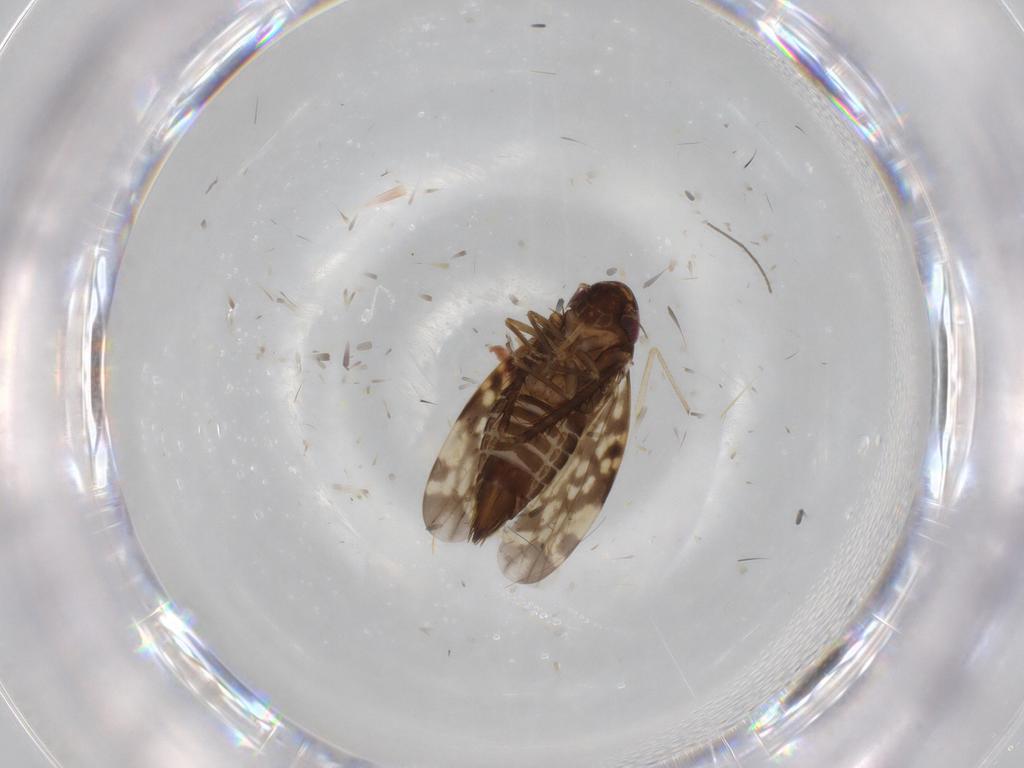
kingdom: Animalia
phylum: Arthropoda
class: Insecta
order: Hemiptera
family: Cicadellidae
